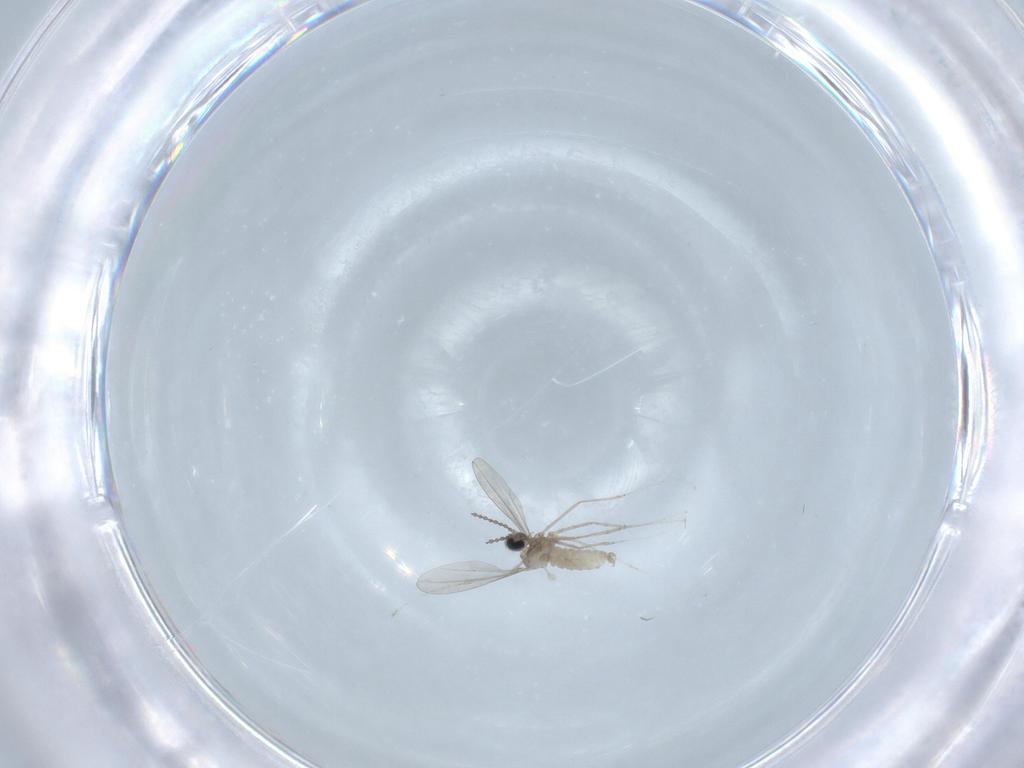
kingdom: Animalia
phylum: Arthropoda
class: Insecta
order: Diptera
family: Cecidomyiidae
